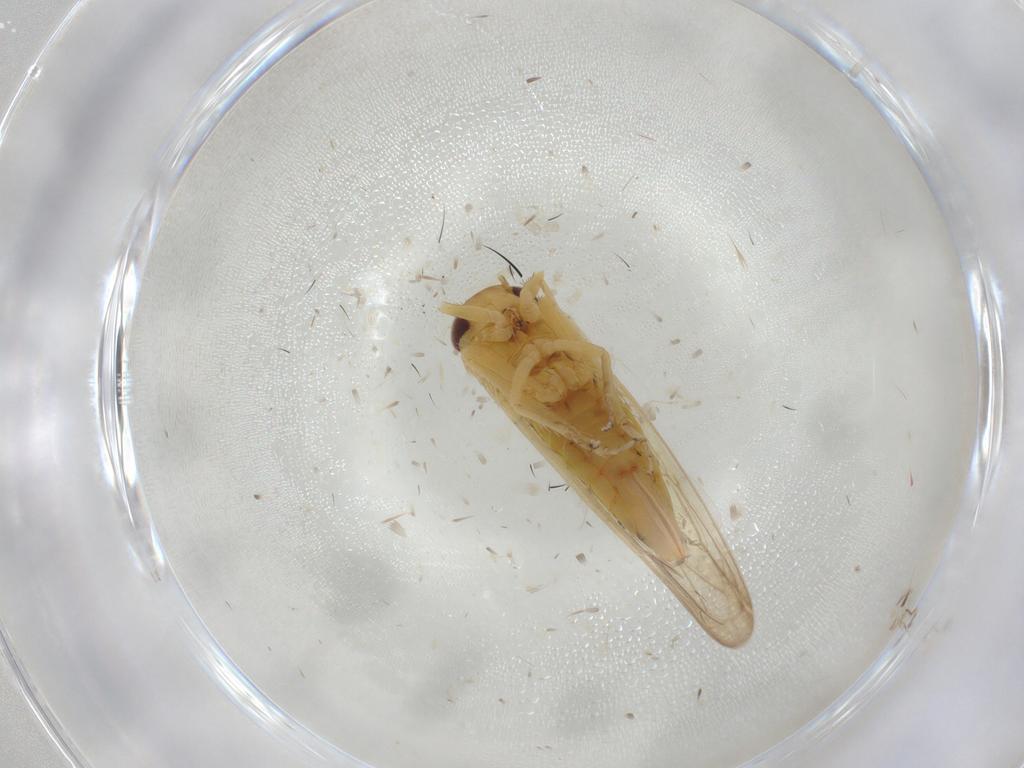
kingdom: Animalia
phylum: Arthropoda
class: Insecta
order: Hemiptera
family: Cicadellidae
